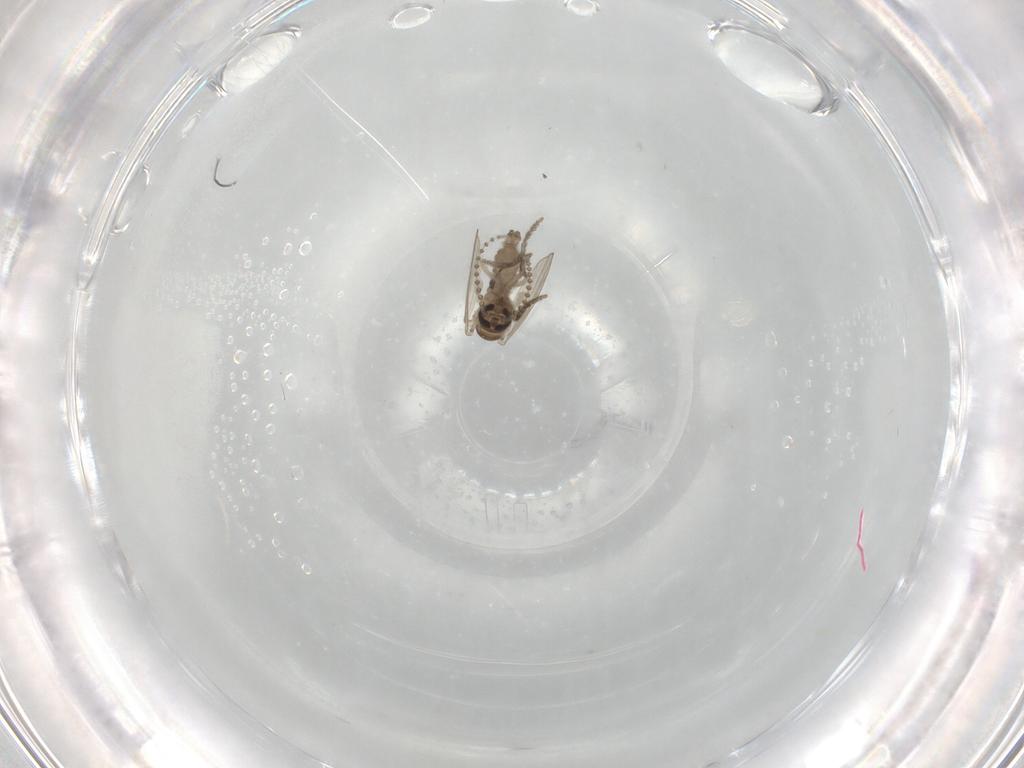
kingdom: Animalia
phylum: Arthropoda
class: Insecta
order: Diptera
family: Psychodidae
